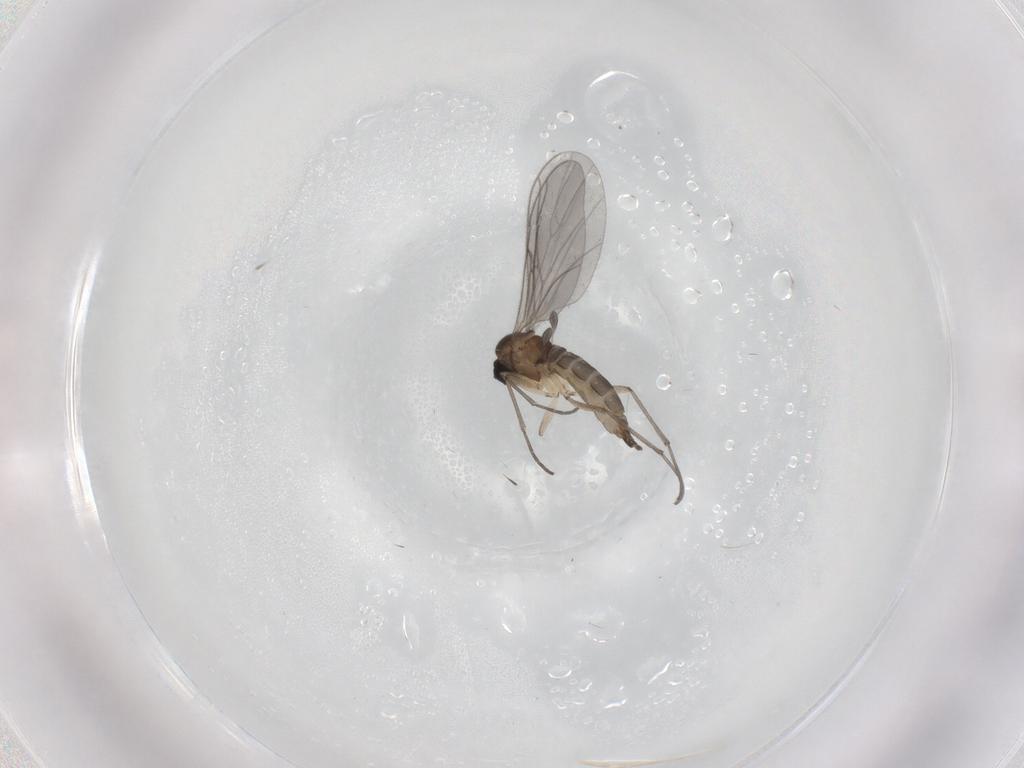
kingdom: Animalia
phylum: Arthropoda
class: Insecta
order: Diptera
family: Sciaridae
